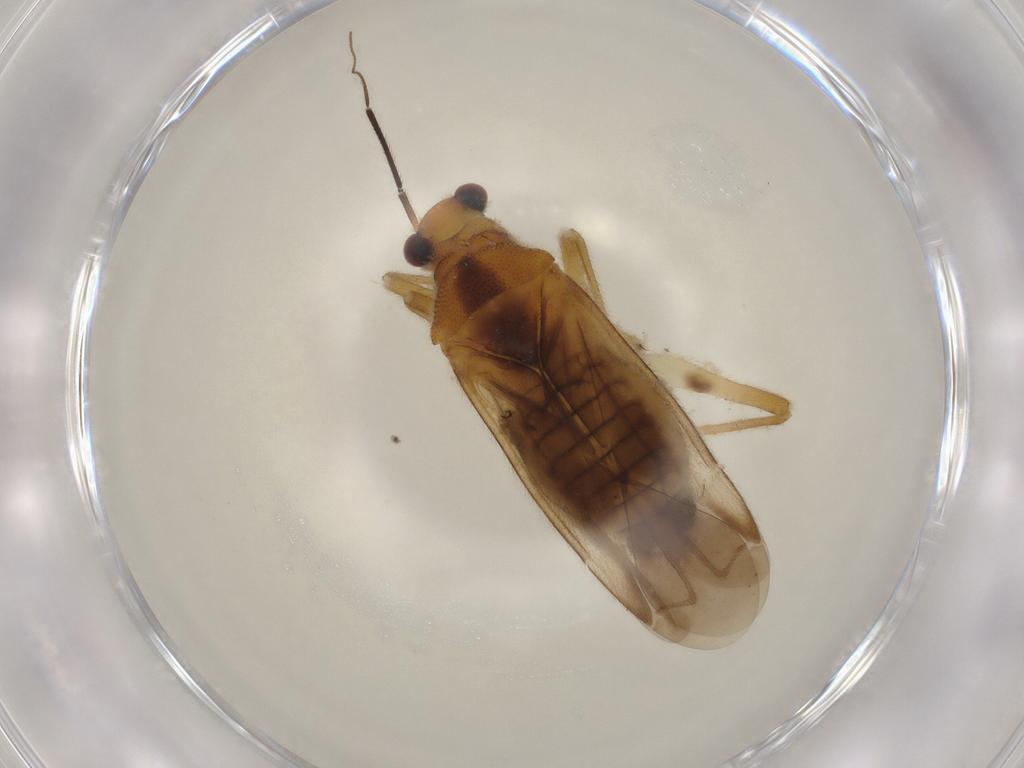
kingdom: Animalia
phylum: Arthropoda
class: Insecta
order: Hemiptera
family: Miridae
